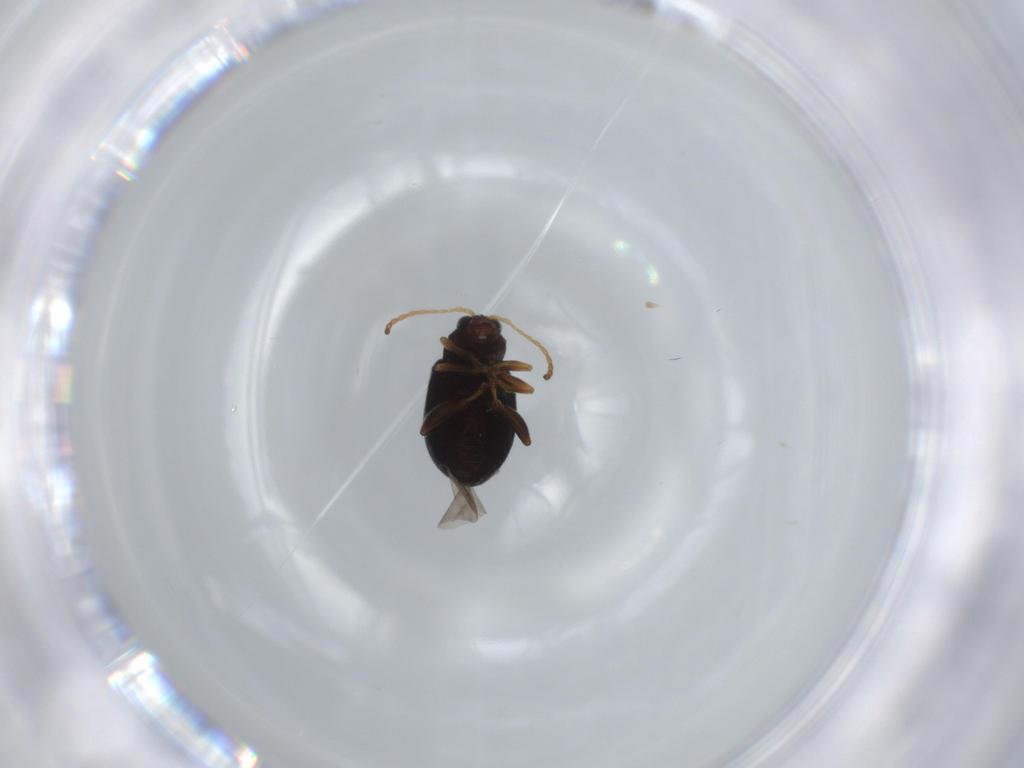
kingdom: Animalia
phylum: Arthropoda
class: Insecta
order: Coleoptera
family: Chrysomelidae
